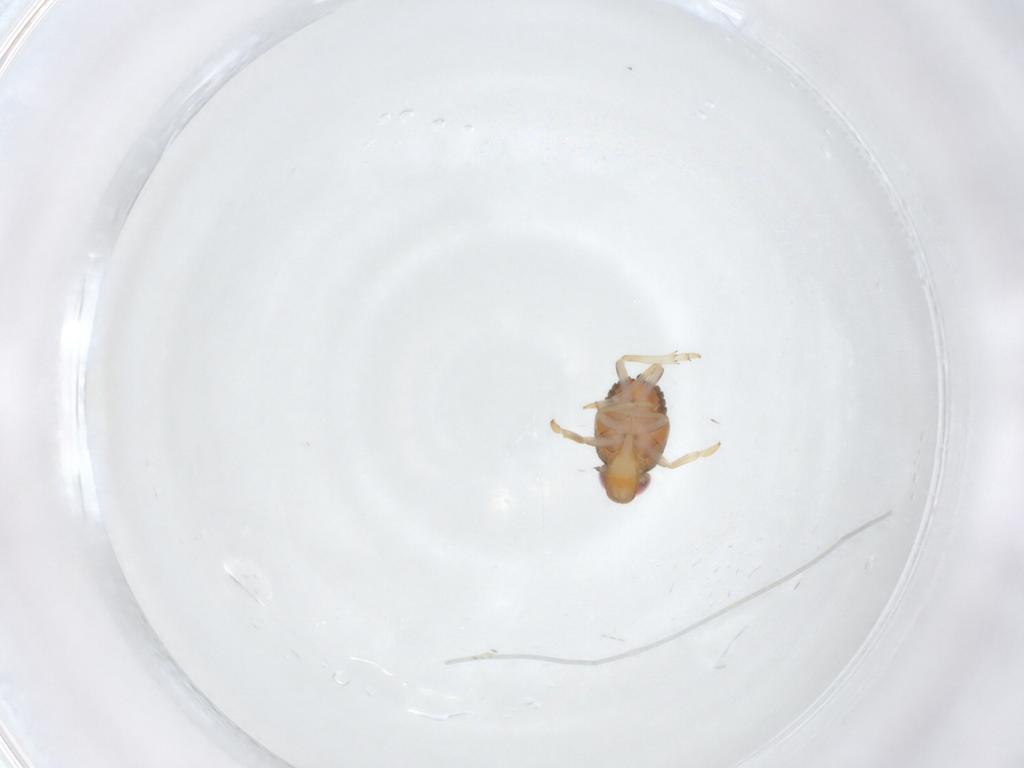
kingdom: Animalia
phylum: Arthropoda
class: Insecta
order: Hemiptera
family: Issidae
